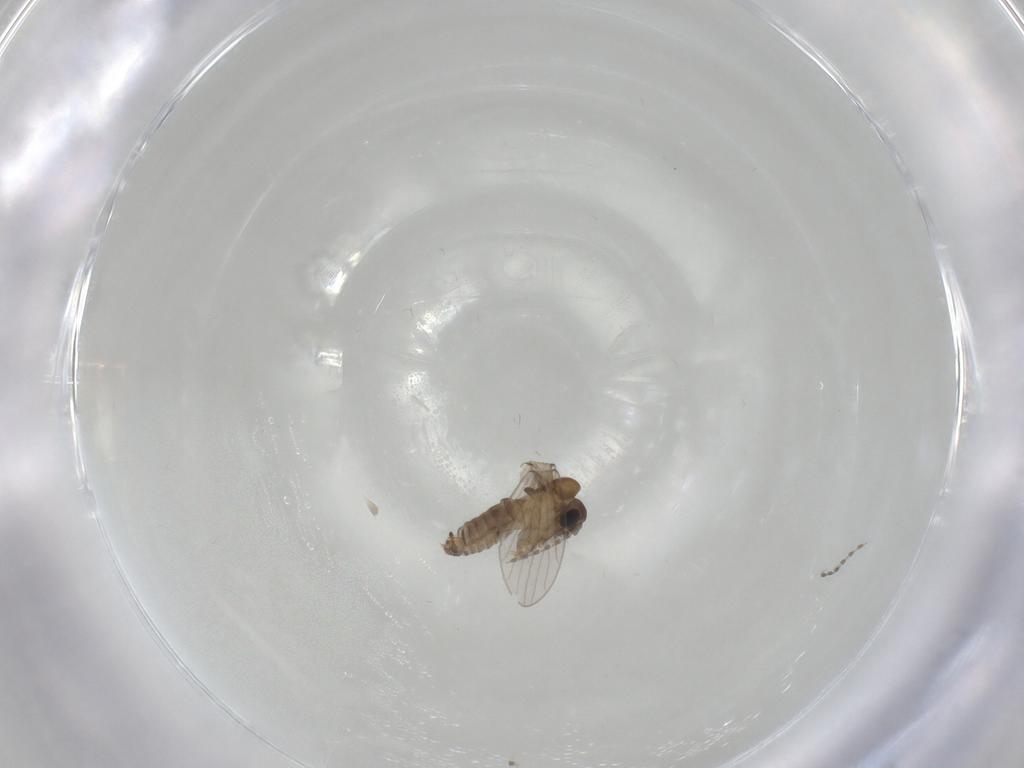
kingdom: Animalia
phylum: Arthropoda
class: Insecta
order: Diptera
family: Psychodidae
